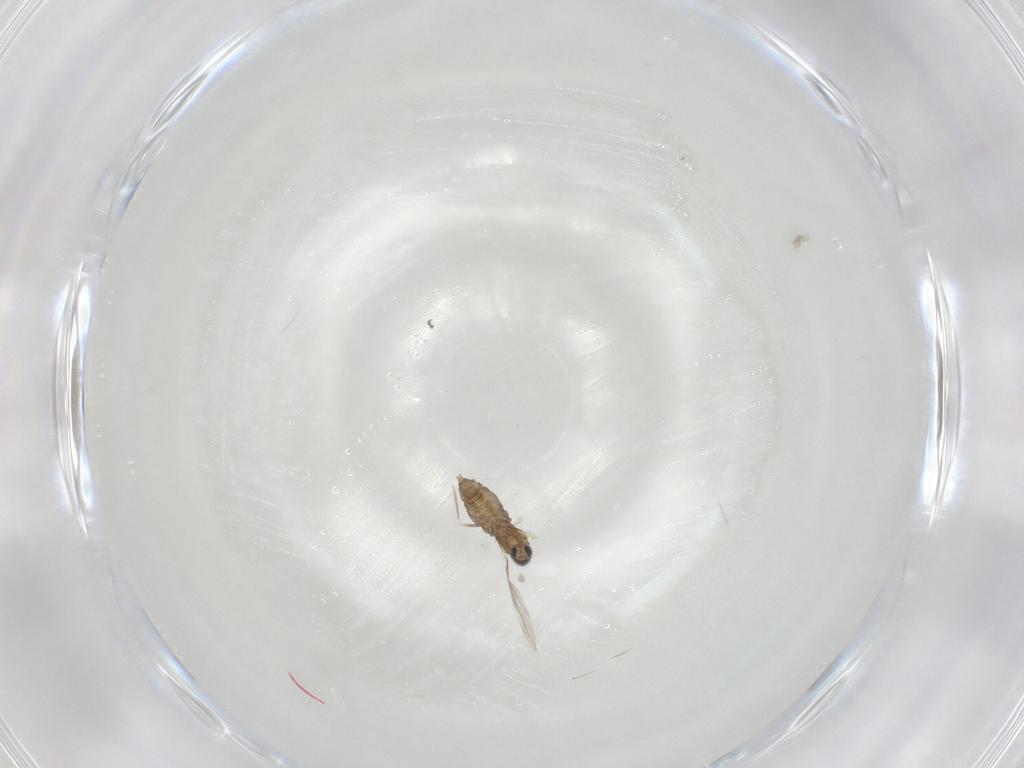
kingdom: Animalia
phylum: Arthropoda
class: Insecta
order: Diptera
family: Cecidomyiidae
